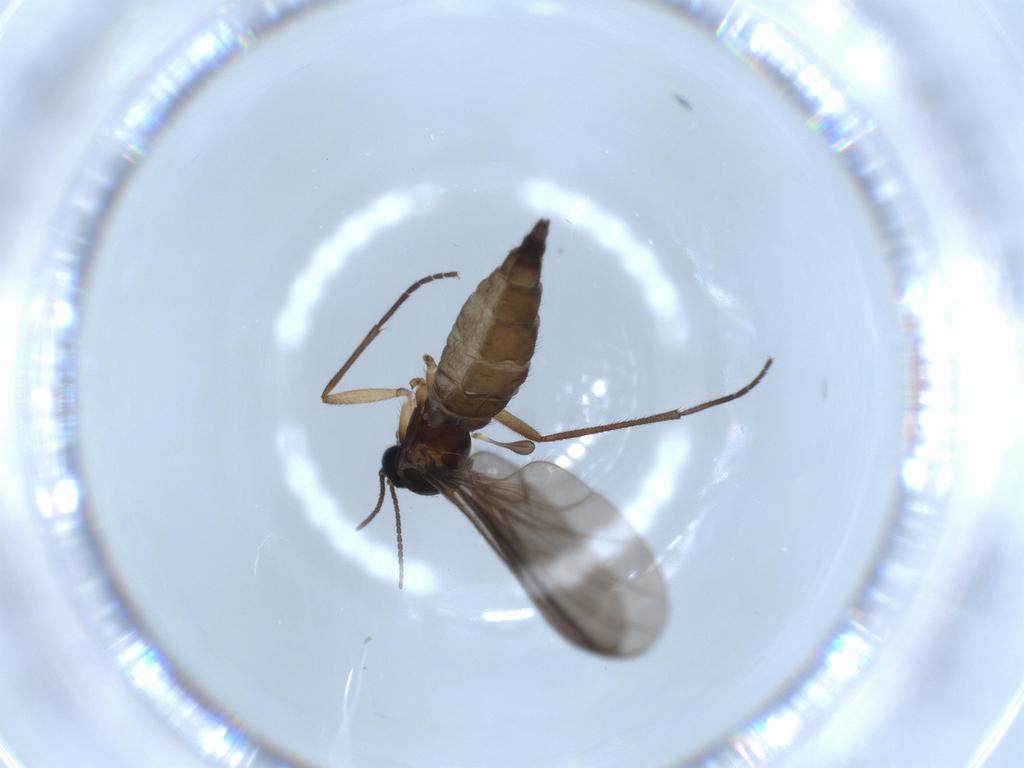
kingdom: Animalia
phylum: Arthropoda
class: Insecta
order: Diptera
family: Sciaridae
